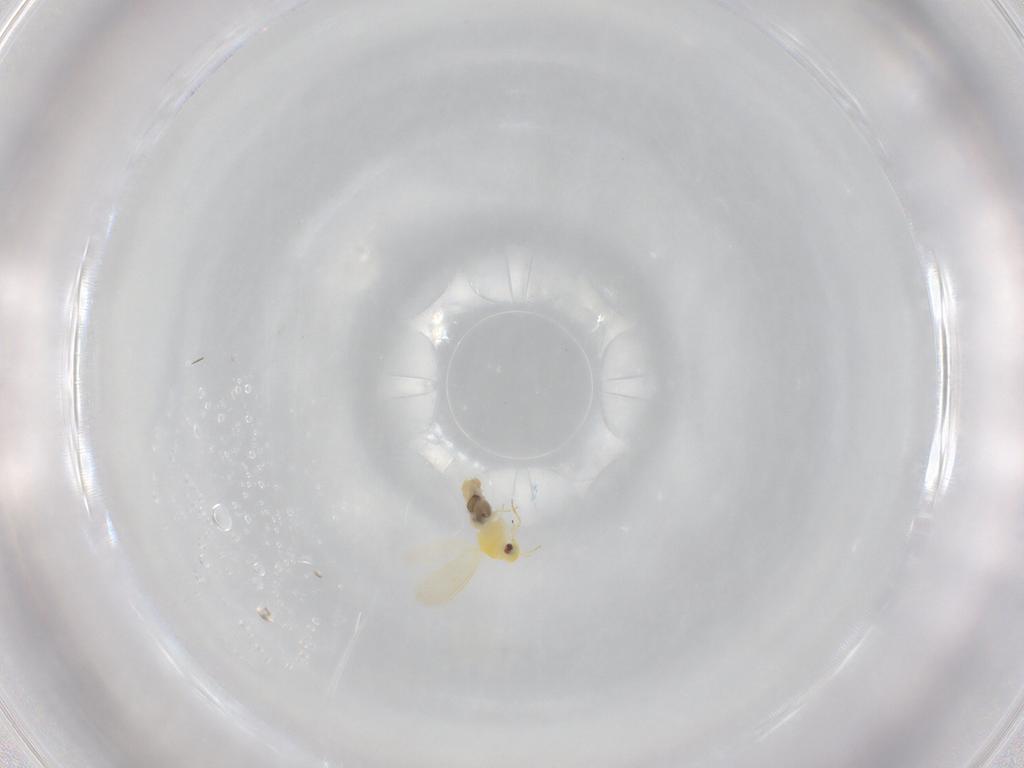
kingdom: Animalia
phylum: Arthropoda
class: Insecta
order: Hemiptera
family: Aleyrodidae
